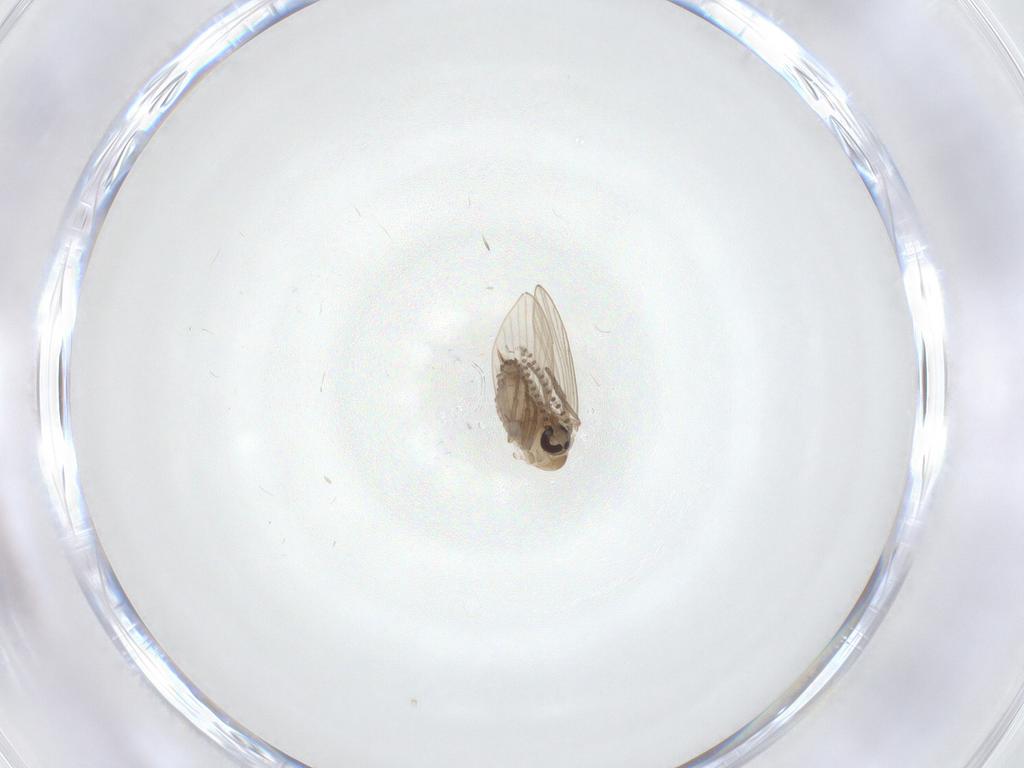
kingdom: Animalia
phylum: Arthropoda
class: Insecta
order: Diptera
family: Psychodidae
